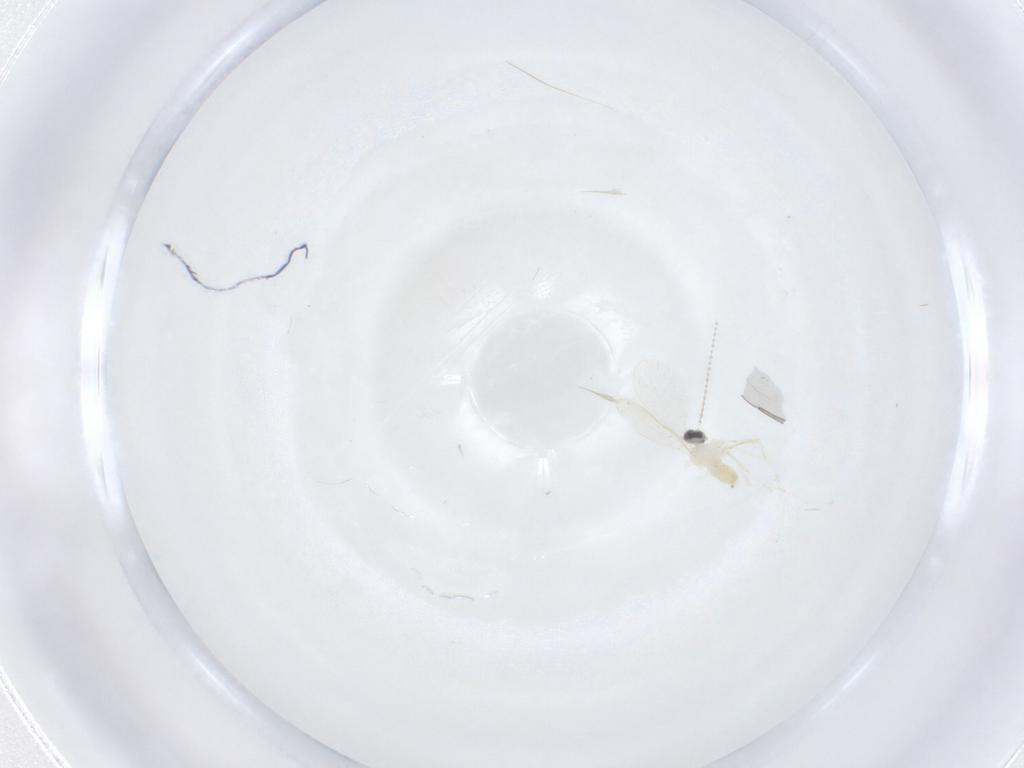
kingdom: Animalia
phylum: Arthropoda
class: Insecta
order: Diptera
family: Cecidomyiidae
